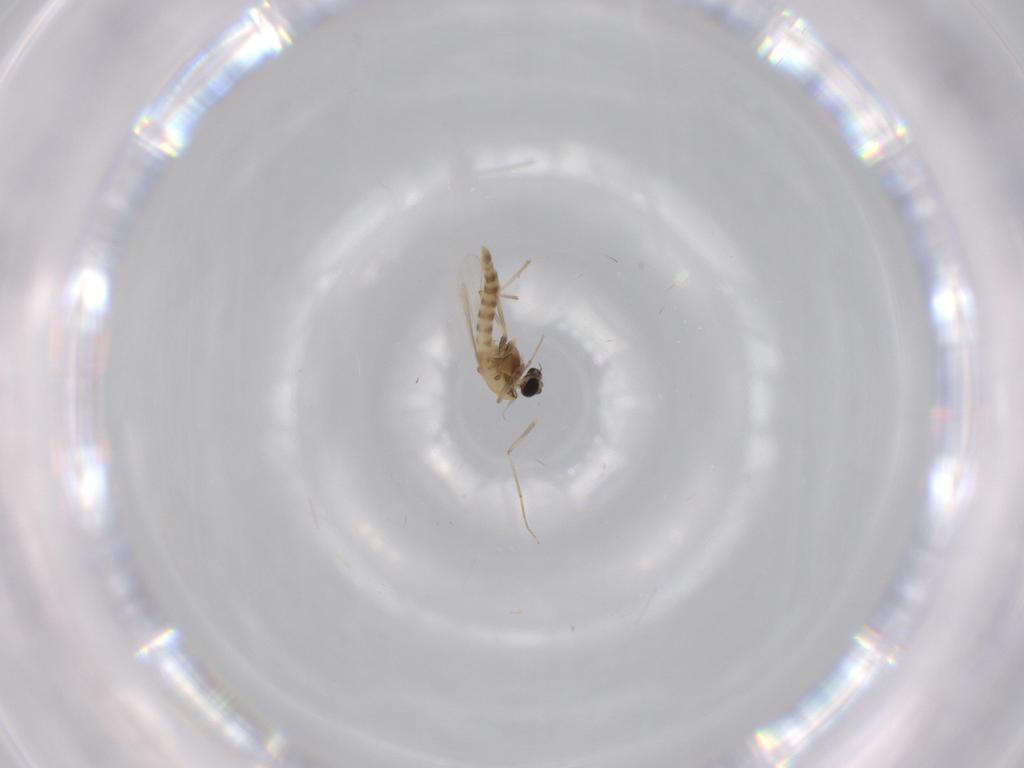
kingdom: Animalia
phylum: Arthropoda
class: Insecta
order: Diptera
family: Chironomidae
